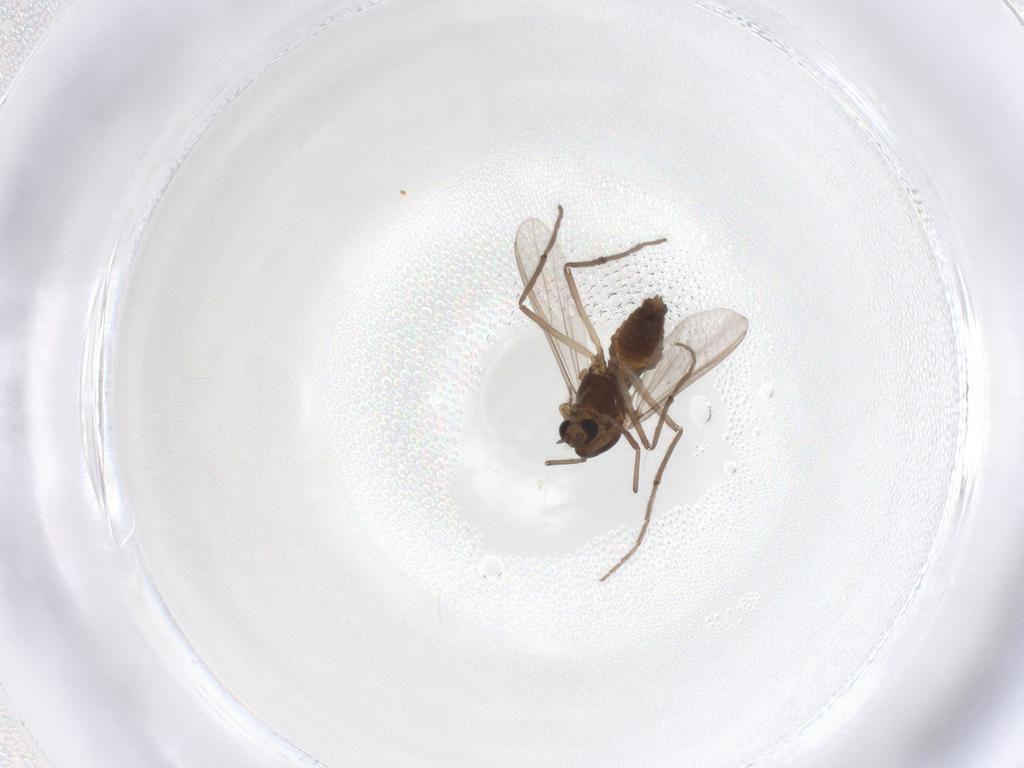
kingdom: Animalia
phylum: Arthropoda
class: Insecta
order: Diptera
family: Chironomidae
